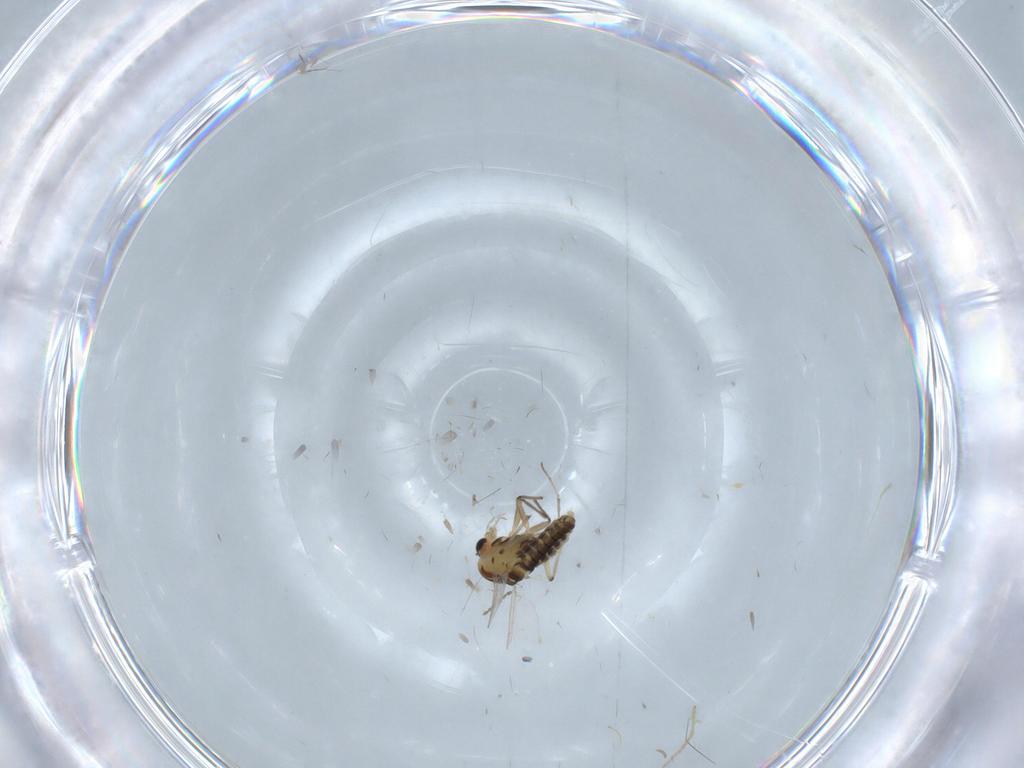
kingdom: Animalia
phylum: Arthropoda
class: Insecta
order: Diptera
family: Chironomidae
